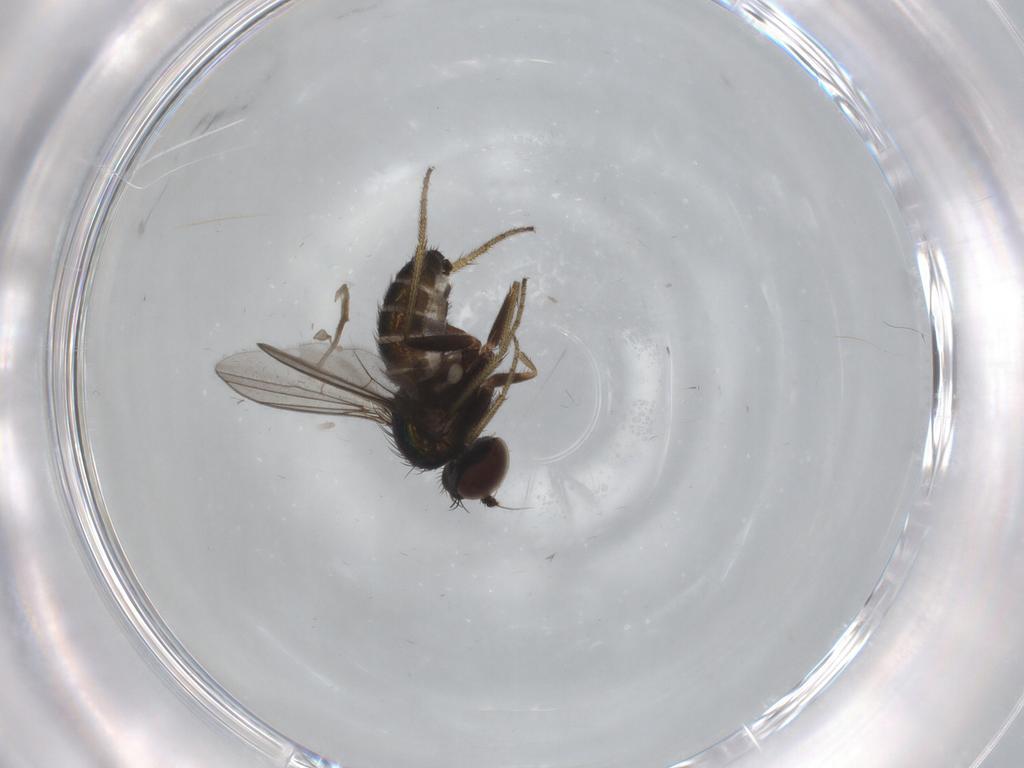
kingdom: Animalia
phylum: Arthropoda
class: Insecta
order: Diptera
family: Dolichopodidae
